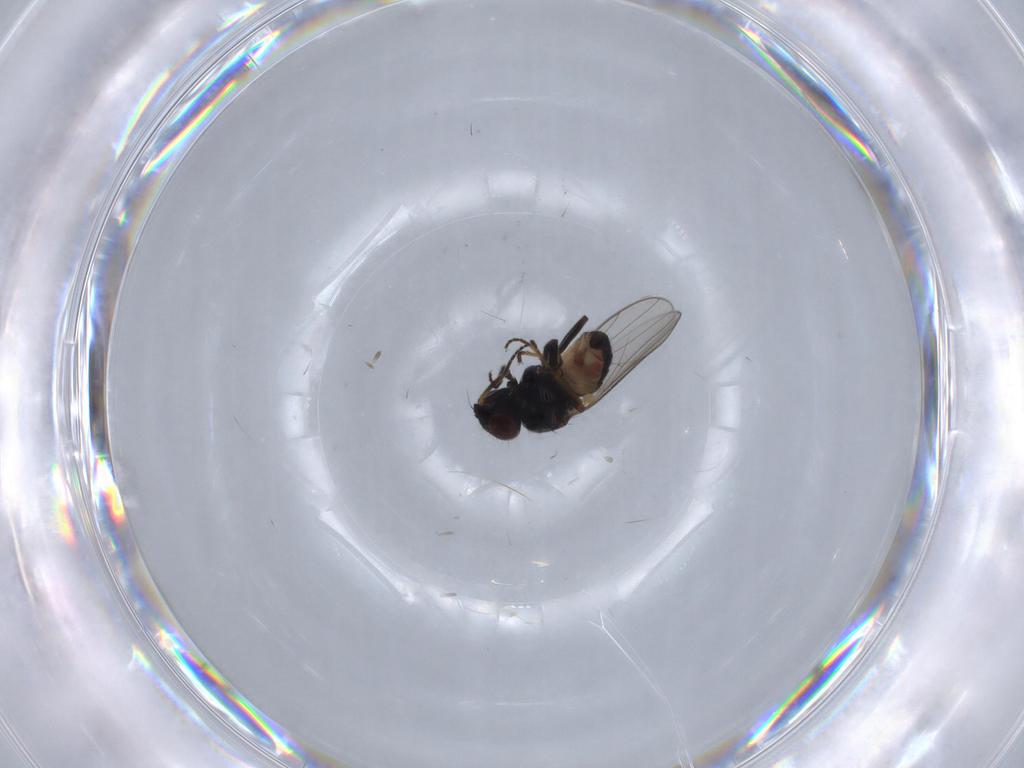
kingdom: Animalia
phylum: Arthropoda
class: Insecta
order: Diptera
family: Chloropidae
